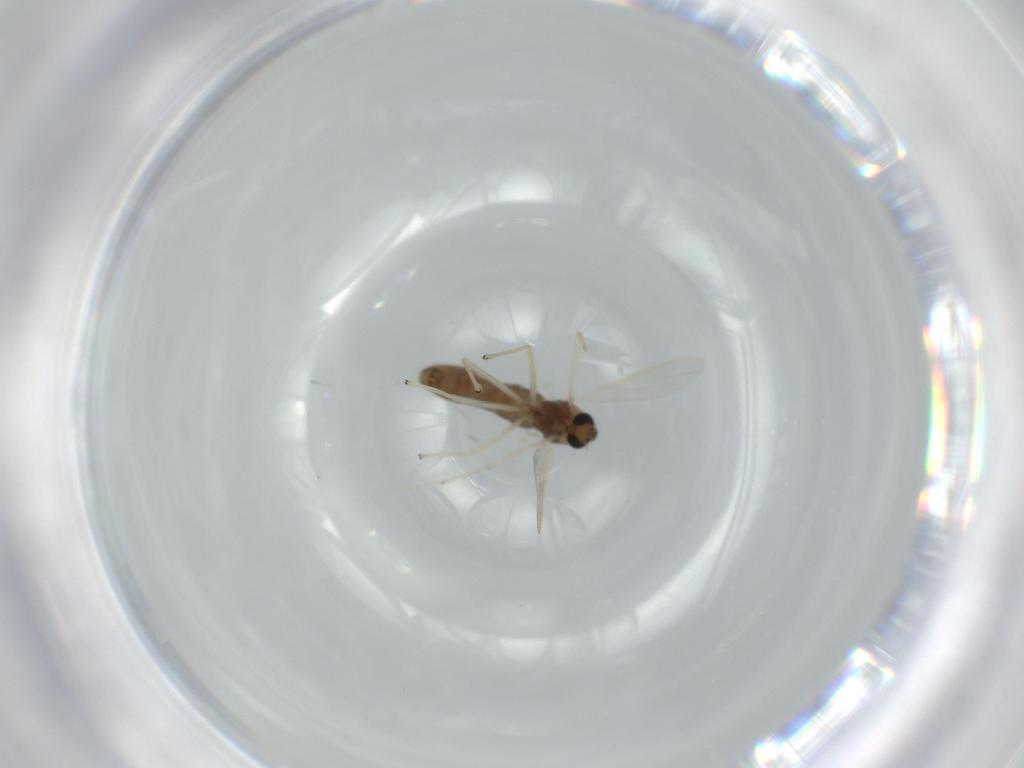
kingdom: Animalia
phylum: Arthropoda
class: Insecta
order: Diptera
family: Chironomidae
